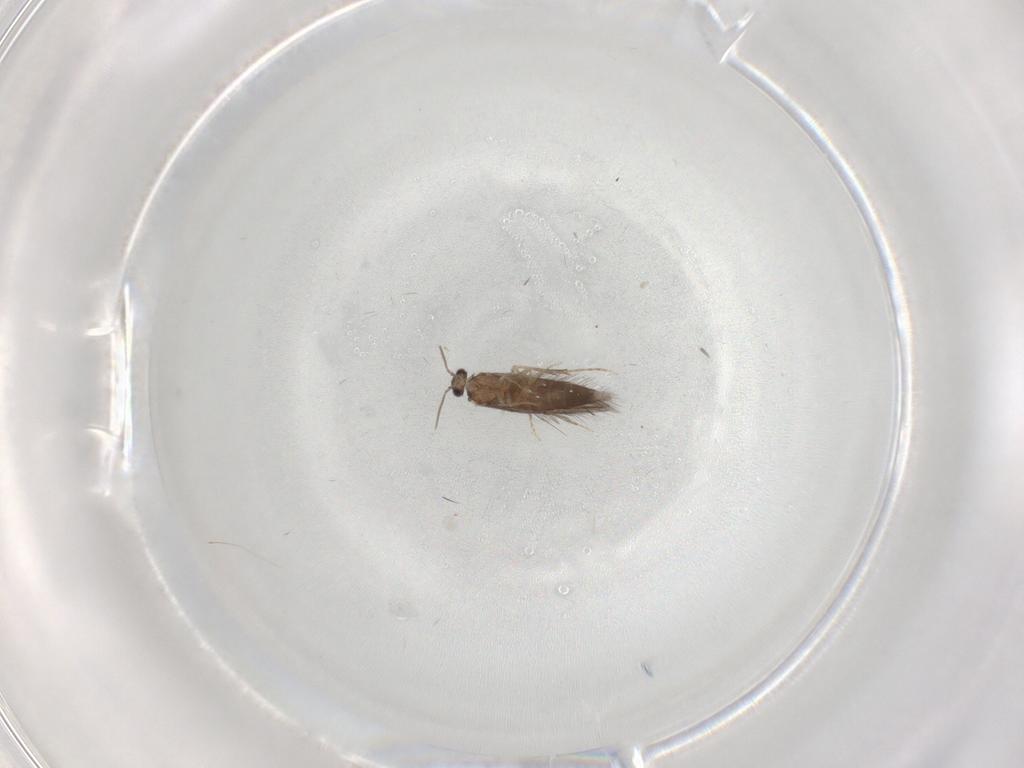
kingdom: Animalia
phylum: Arthropoda
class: Insecta
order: Trichoptera
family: Hydroptilidae
